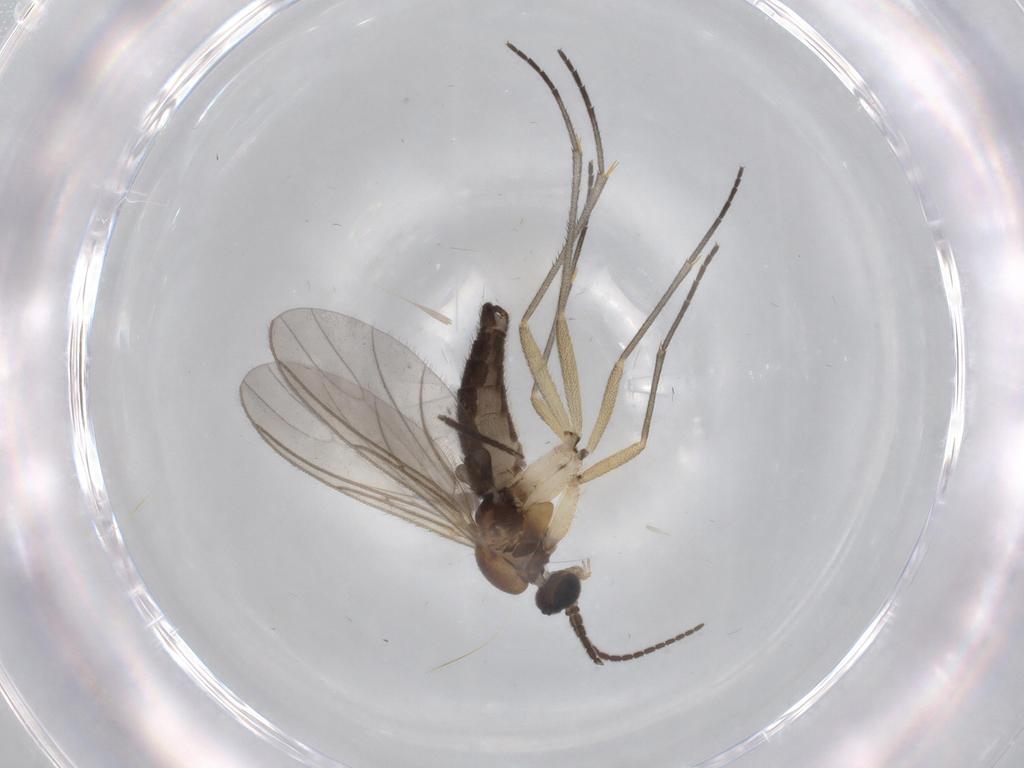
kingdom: Animalia
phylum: Arthropoda
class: Insecta
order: Diptera
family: Sciaridae
